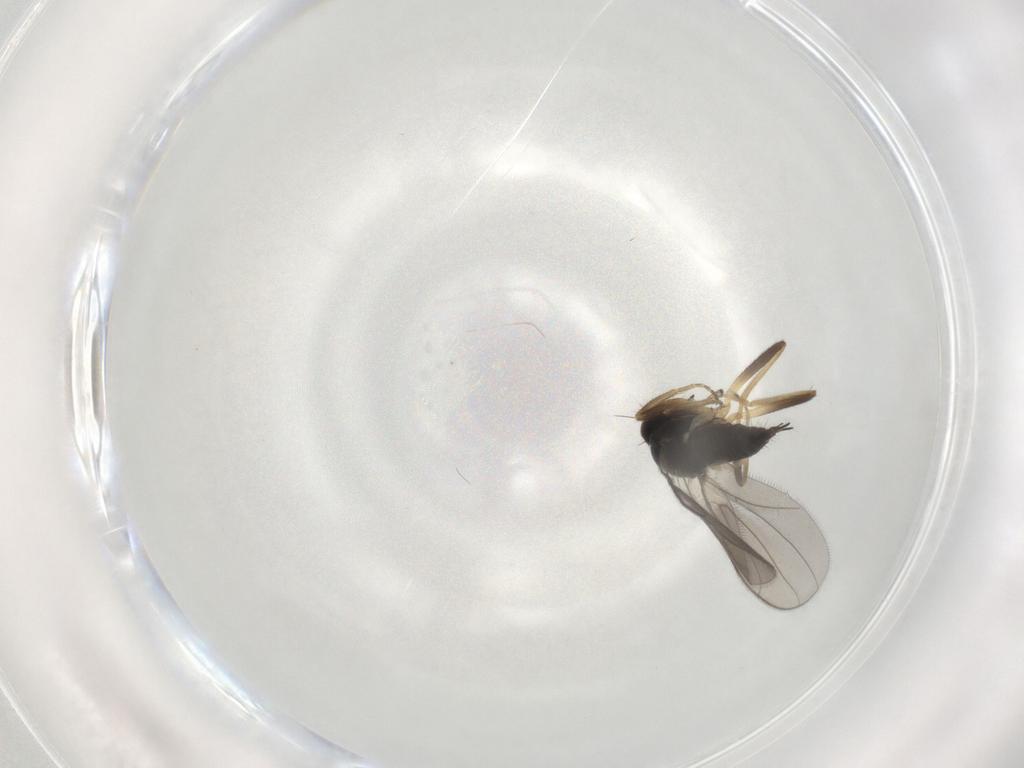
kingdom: Animalia
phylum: Arthropoda
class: Insecta
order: Diptera
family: Hybotidae
